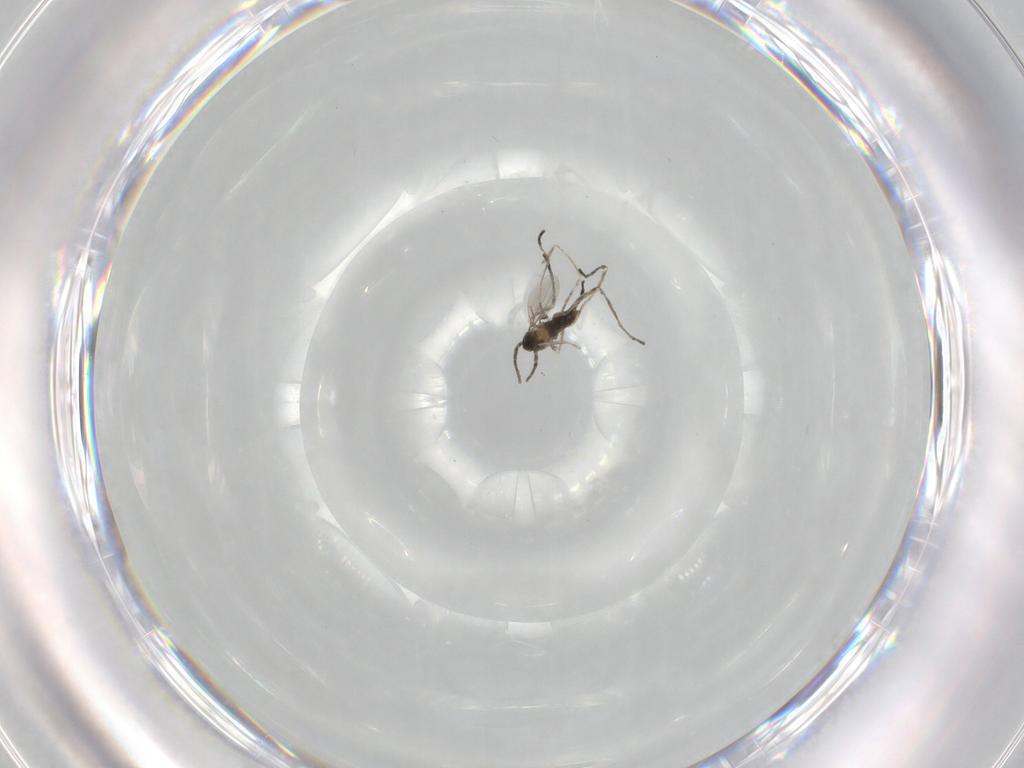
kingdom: Animalia
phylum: Arthropoda
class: Insecta
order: Diptera
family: Cecidomyiidae
